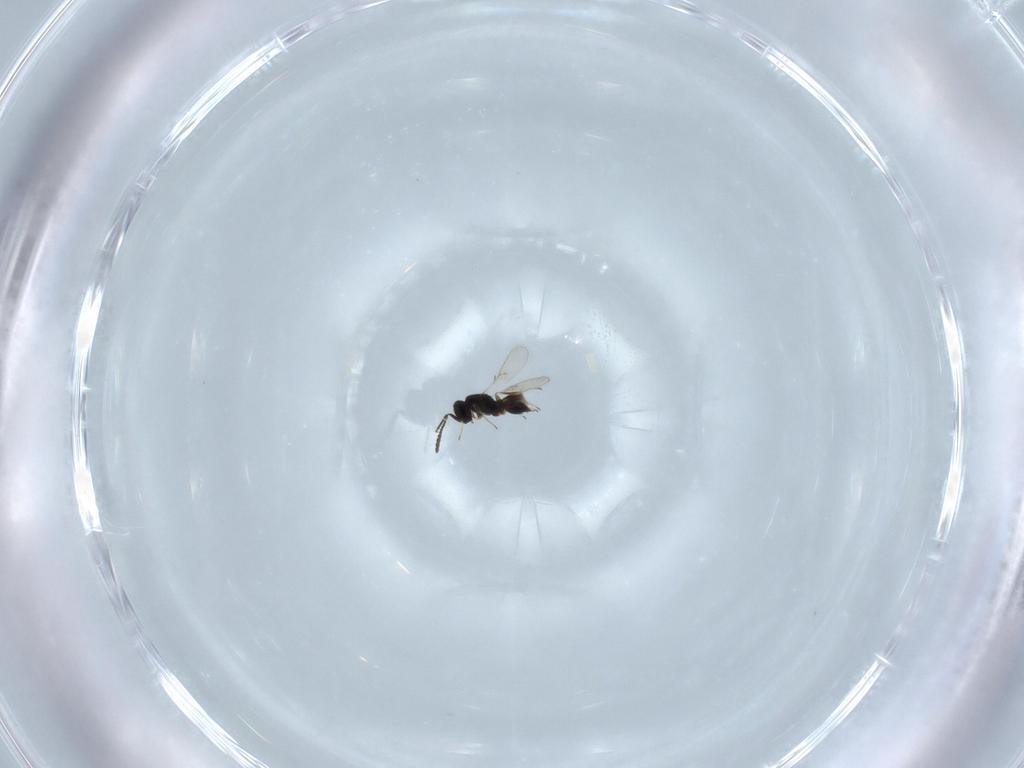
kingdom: Animalia
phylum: Arthropoda
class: Insecta
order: Hymenoptera
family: Scelionidae
